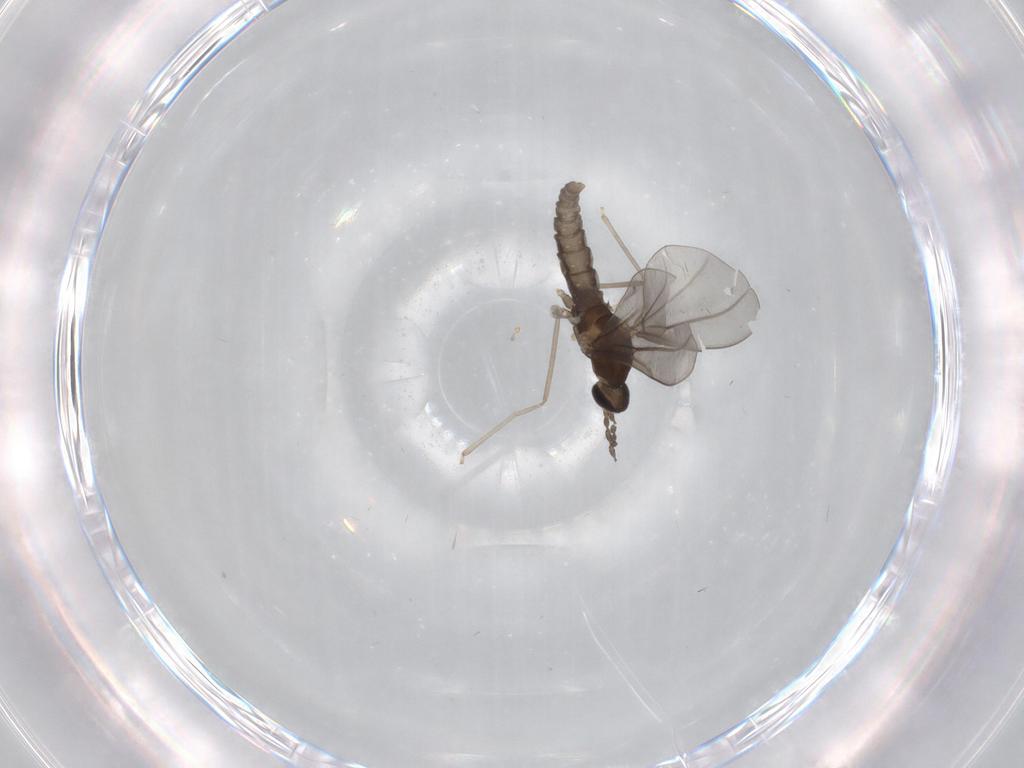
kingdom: Animalia
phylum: Arthropoda
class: Insecta
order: Diptera
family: Cecidomyiidae
